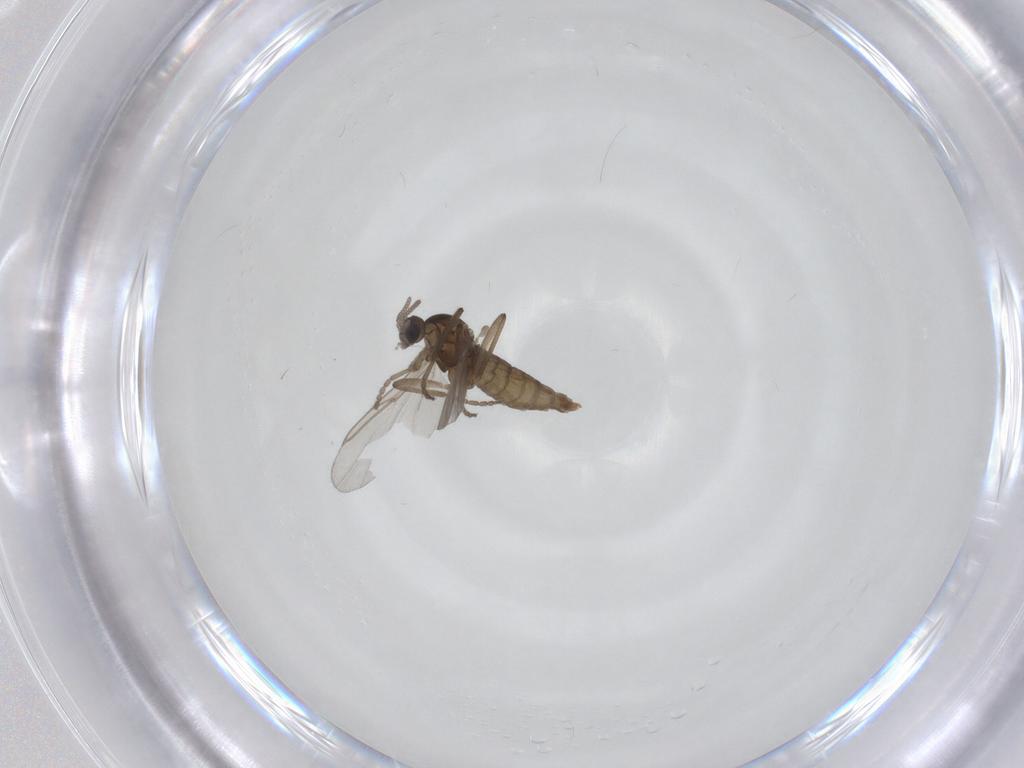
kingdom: Animalia
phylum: Arthropoda
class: Insecta
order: Diptera
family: Cecidomyiidae
